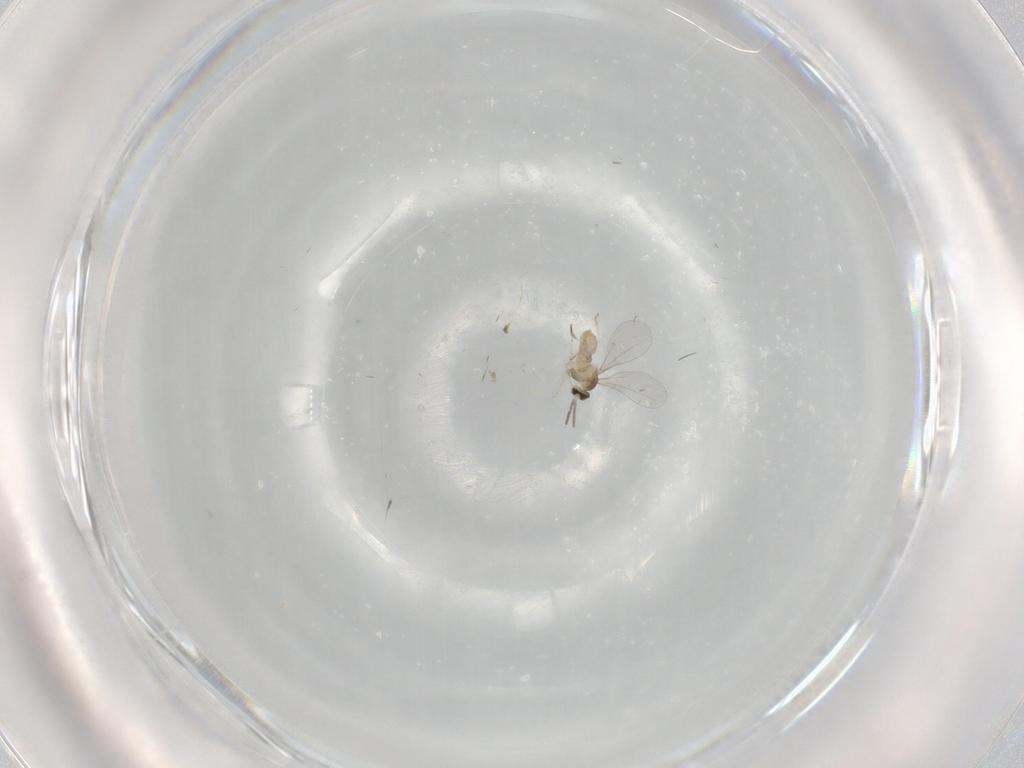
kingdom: Animalia
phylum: Arthropoda
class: Insecta
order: Diptera
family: Cecidomyiidae
